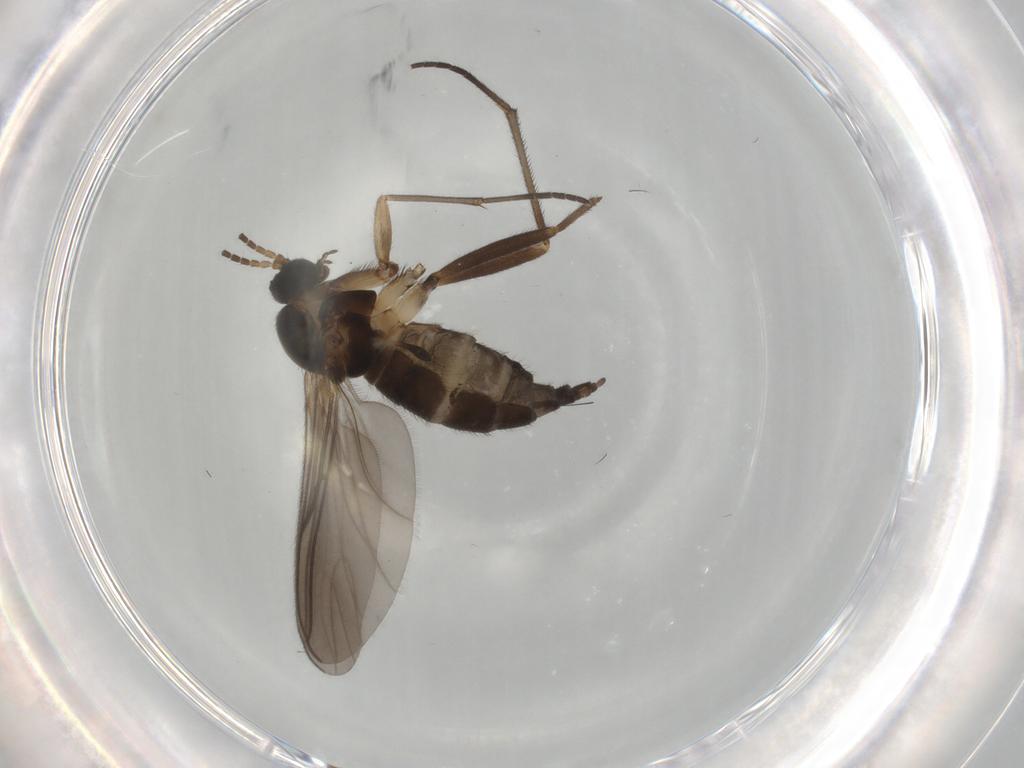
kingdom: Animalia
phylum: Arthropoda
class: Insecta
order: Diptera
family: Sciaridae
